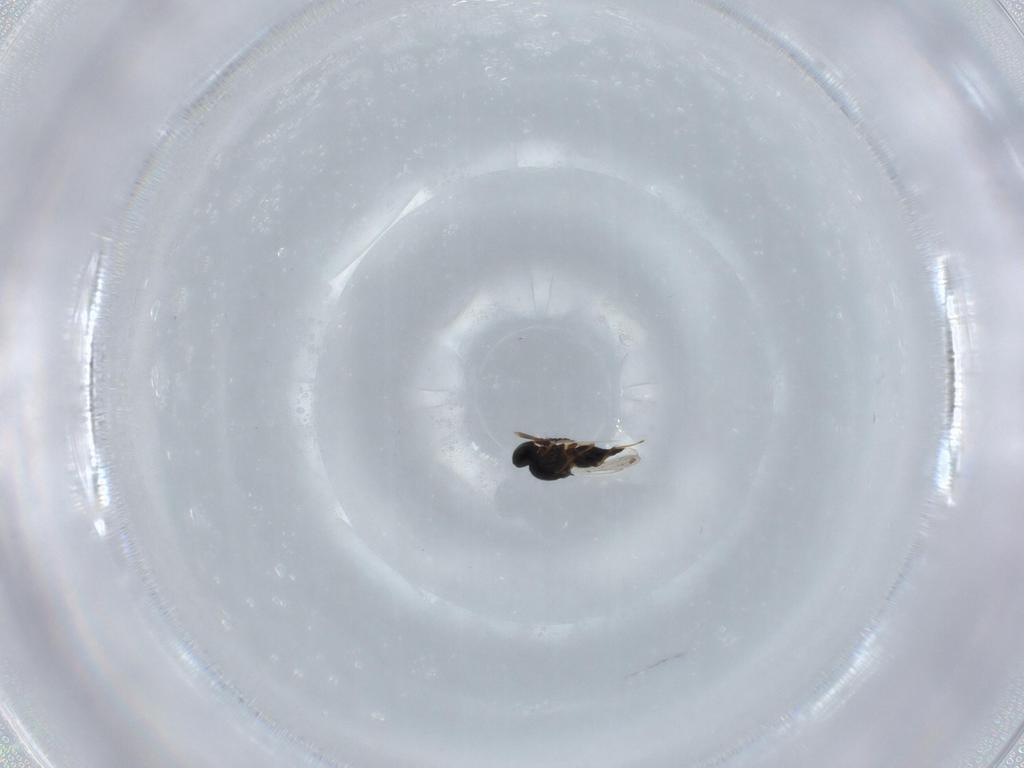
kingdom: Animalia
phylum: Arthropoda
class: Insecta
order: Hymenoptera
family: Platygastridae
